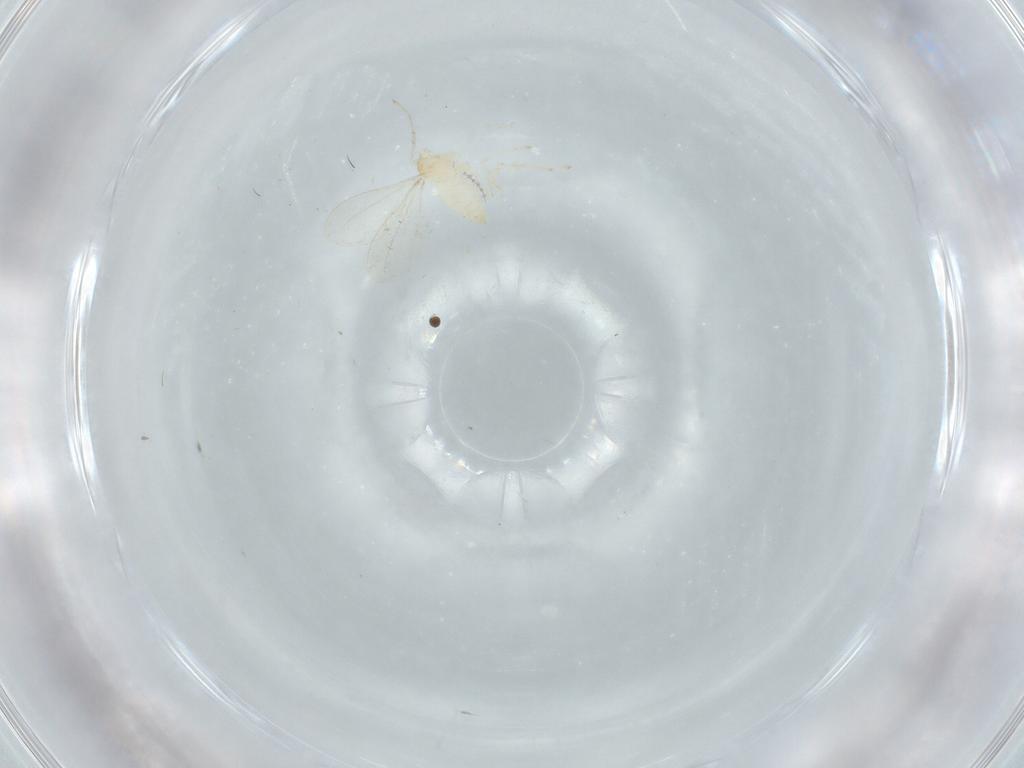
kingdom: Animalia
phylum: Arthropoda
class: Insecta
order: Diptera
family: Cecidomyiidae
